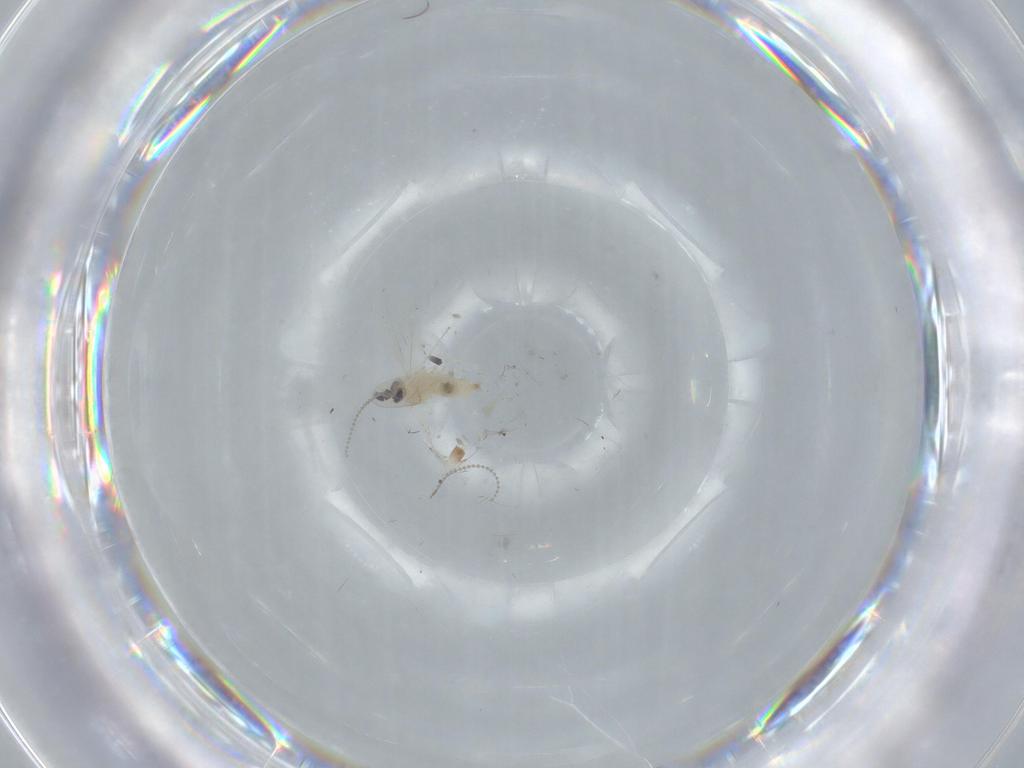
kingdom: Animalia
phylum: Arthropoda
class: Insecta
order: Diptera
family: Cecidomyiidae
